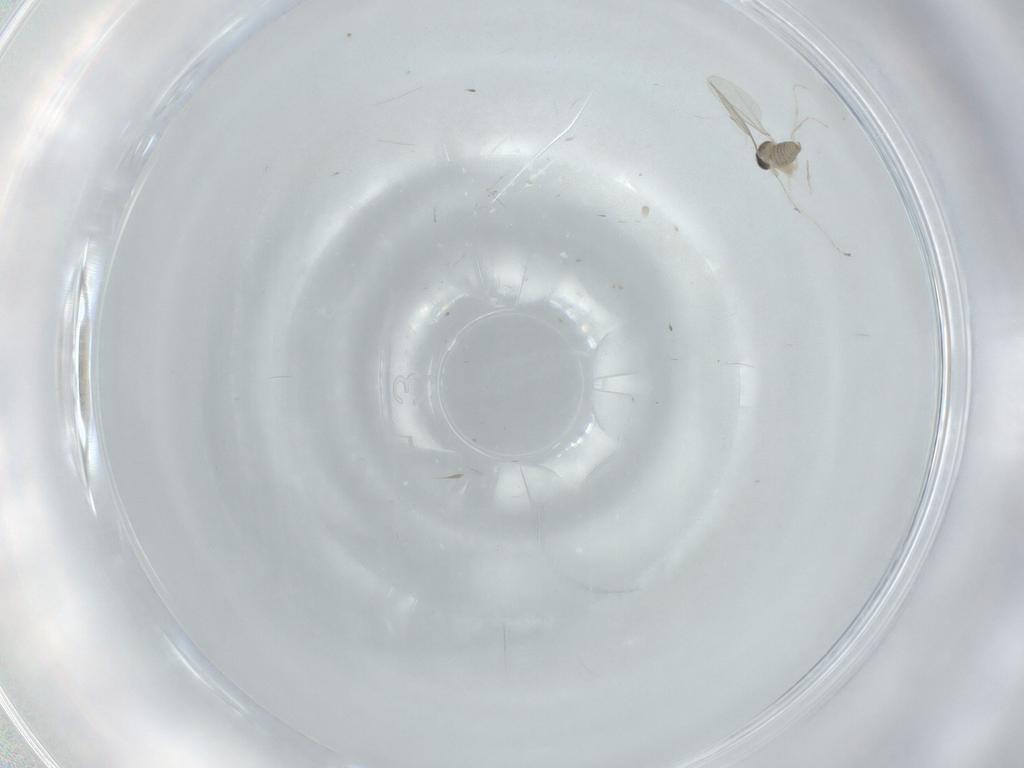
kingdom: Animalia
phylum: Arthropoda
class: Insecta
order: Diptera
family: Cecidomyiidae
